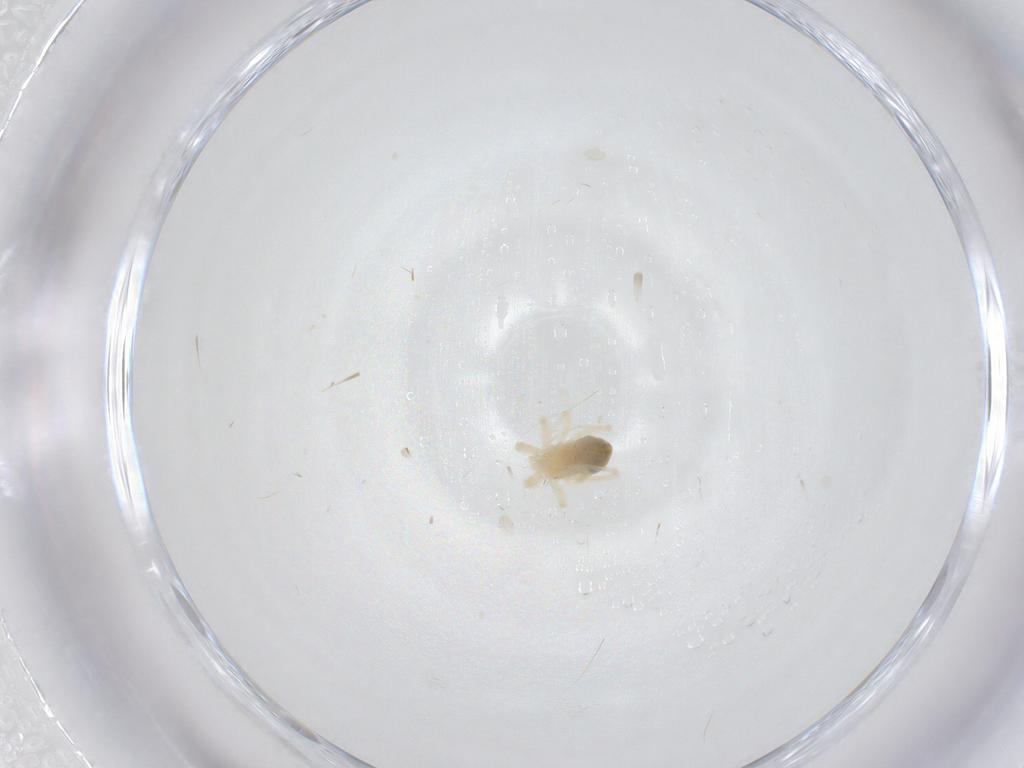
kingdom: Animalia
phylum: Arthropoda
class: Arachnida
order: Trombidiformes
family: Anystidae
